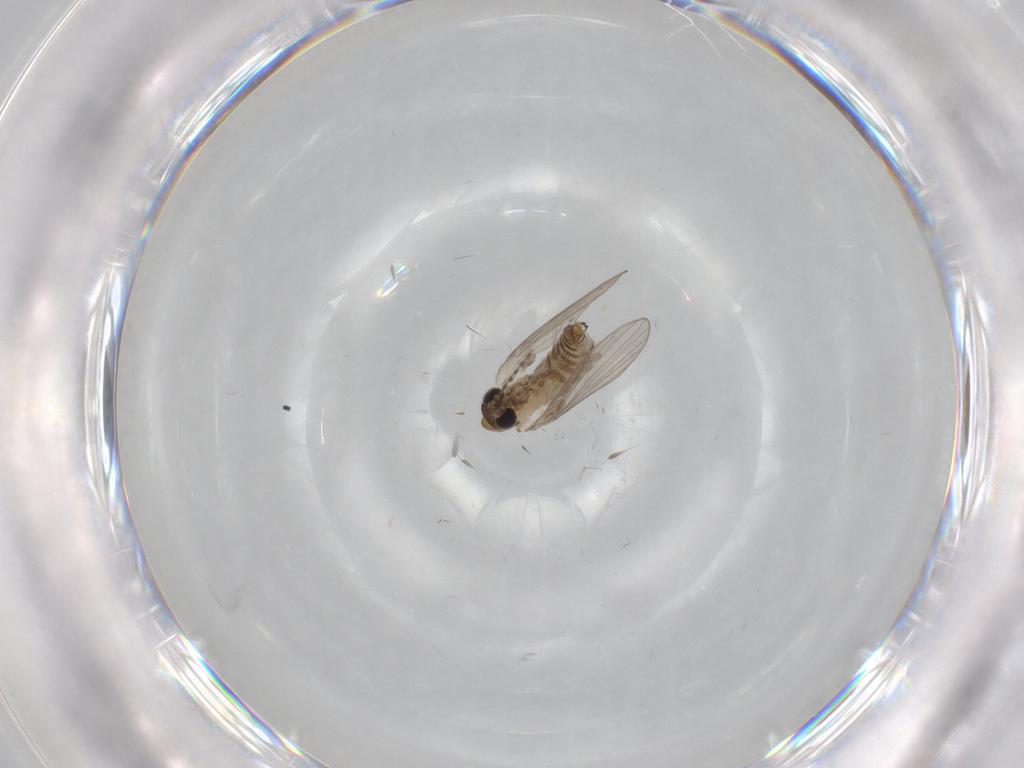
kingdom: Animalia
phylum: Arthropoda
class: Insecta
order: Diptera
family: Psychodidae
